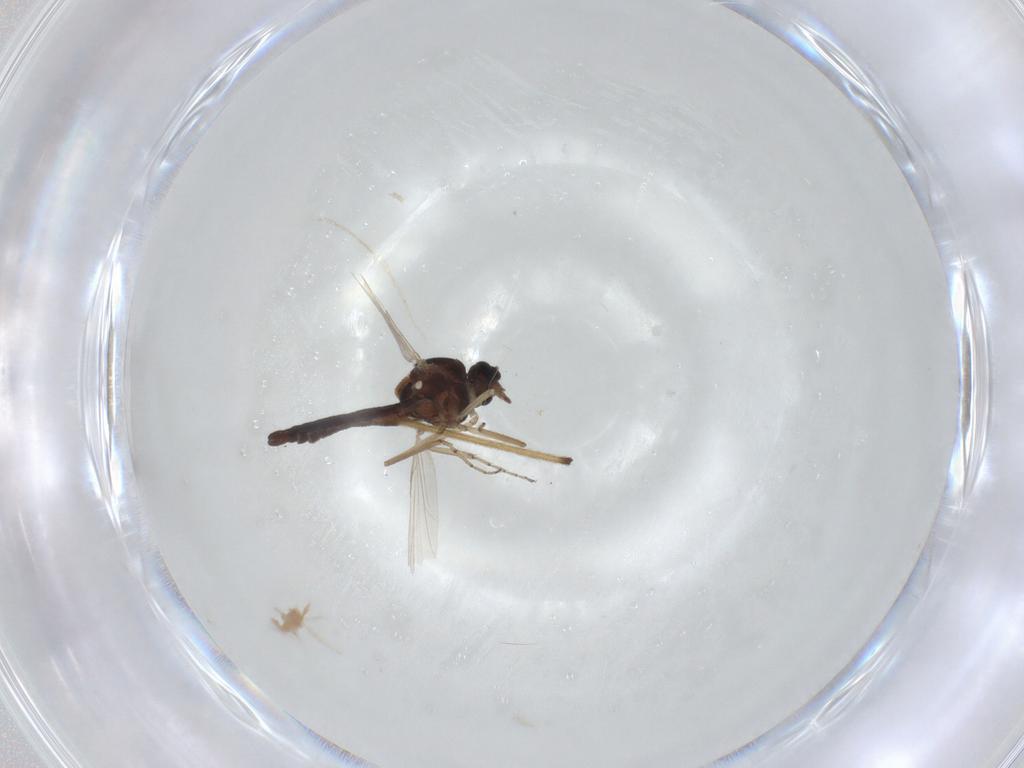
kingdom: Animalia
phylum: Arthropoda
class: Insecta
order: Diptera
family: Ceratopogonidae
